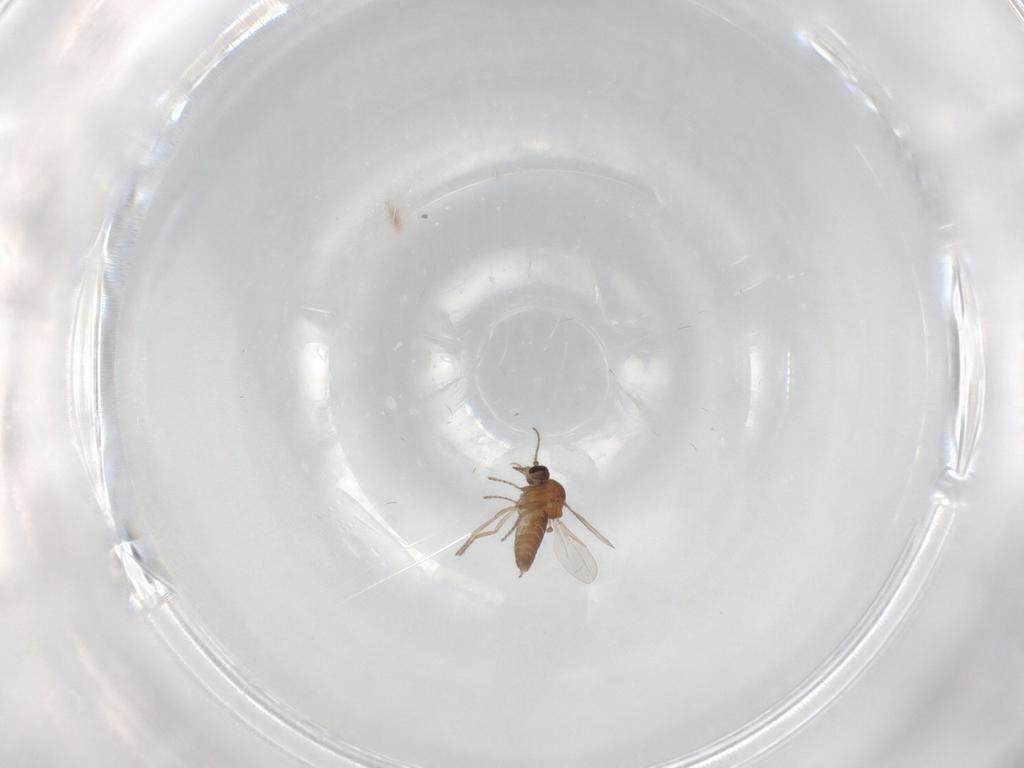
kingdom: Animalia
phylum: Arthropoda
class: Insecta
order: Diptera
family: Ceratopogonidae
